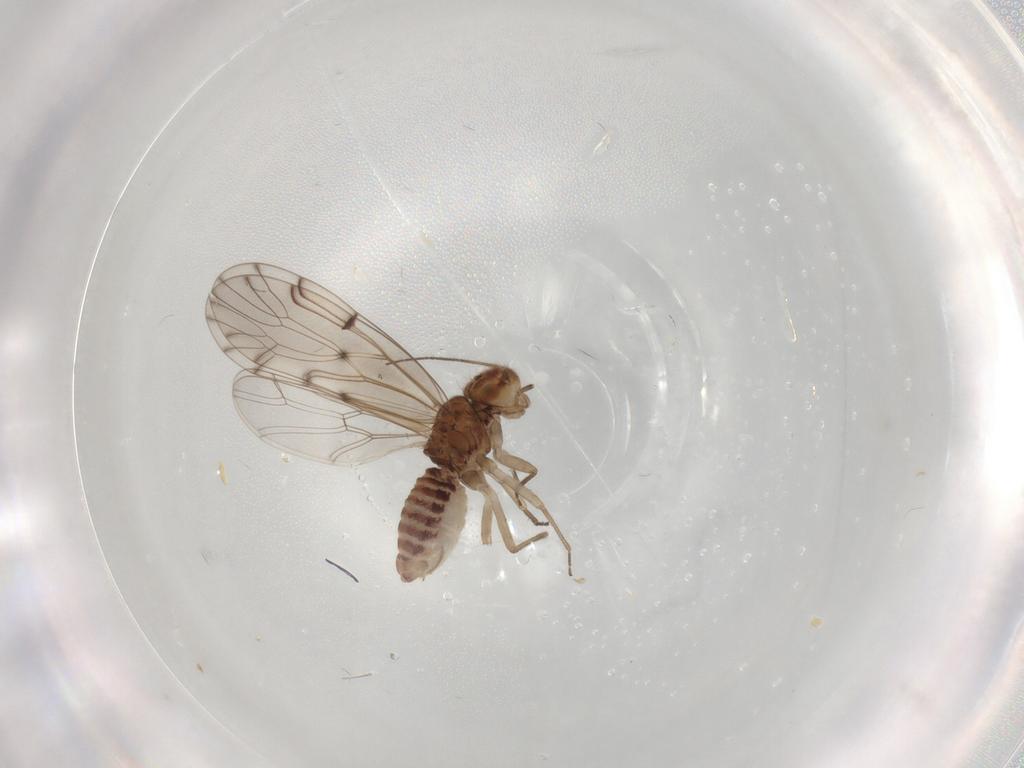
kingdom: Animalia
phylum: Arthropoda
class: Insecta
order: Hemiptera
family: Cicadellidae
